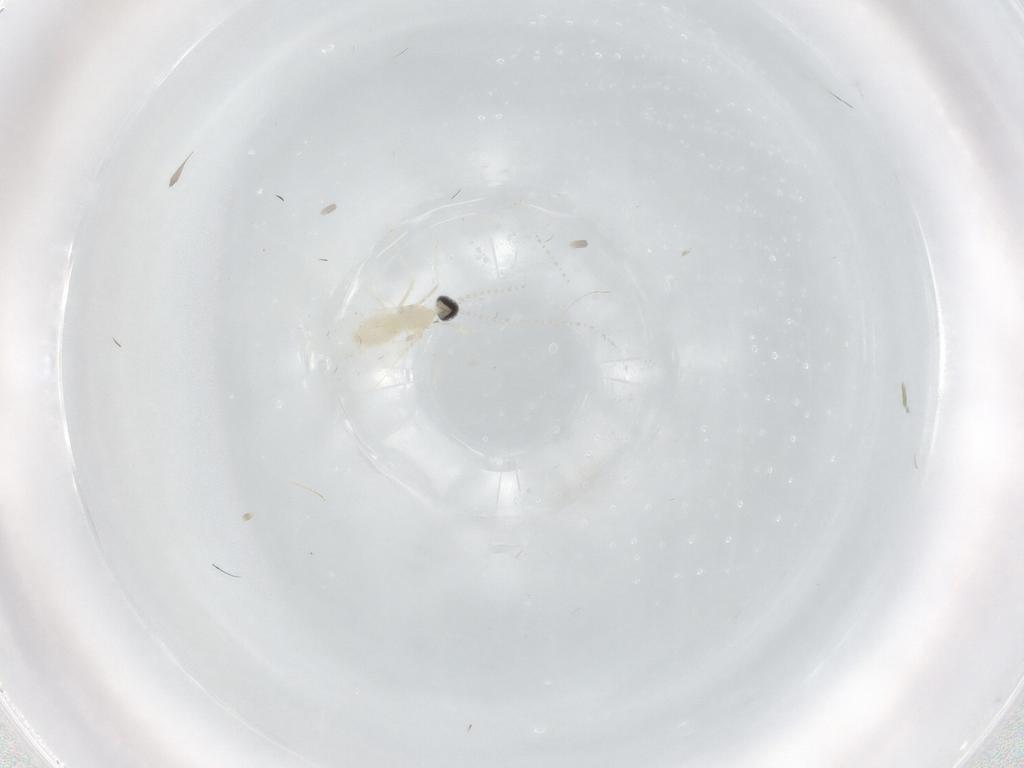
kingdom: Animalia
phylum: Arthropoda
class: Insecta
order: Diptera
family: Cecidomyiidae
